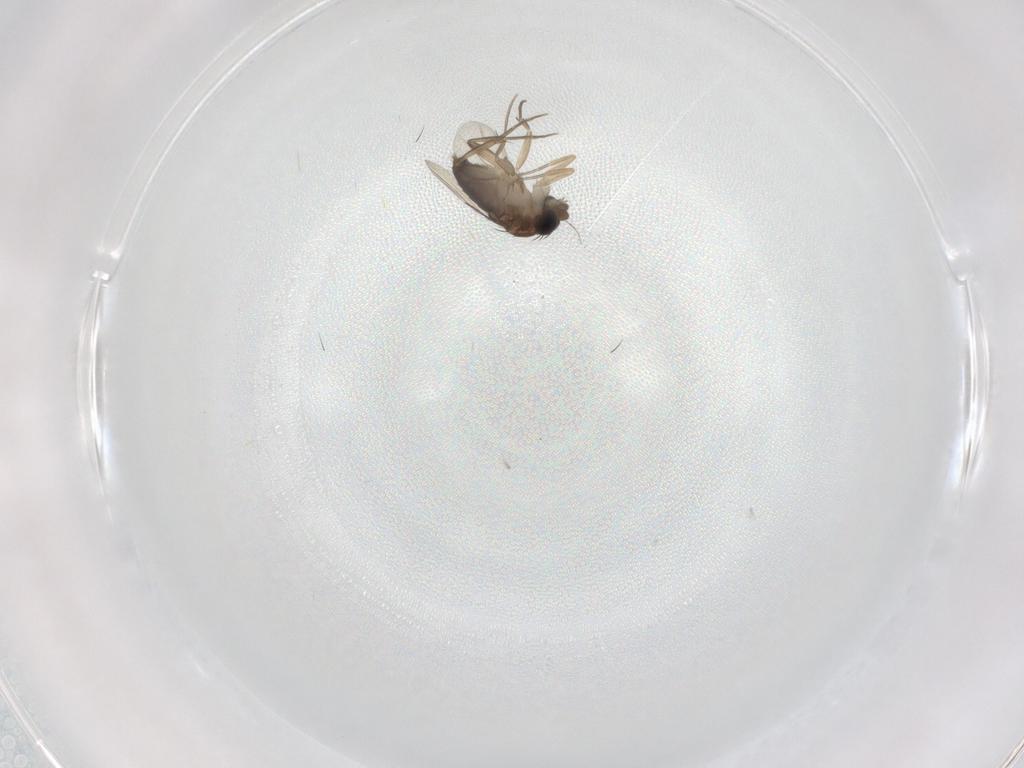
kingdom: Animalia
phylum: Arthropoda
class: Insecta
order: Diptera
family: Phoridae
